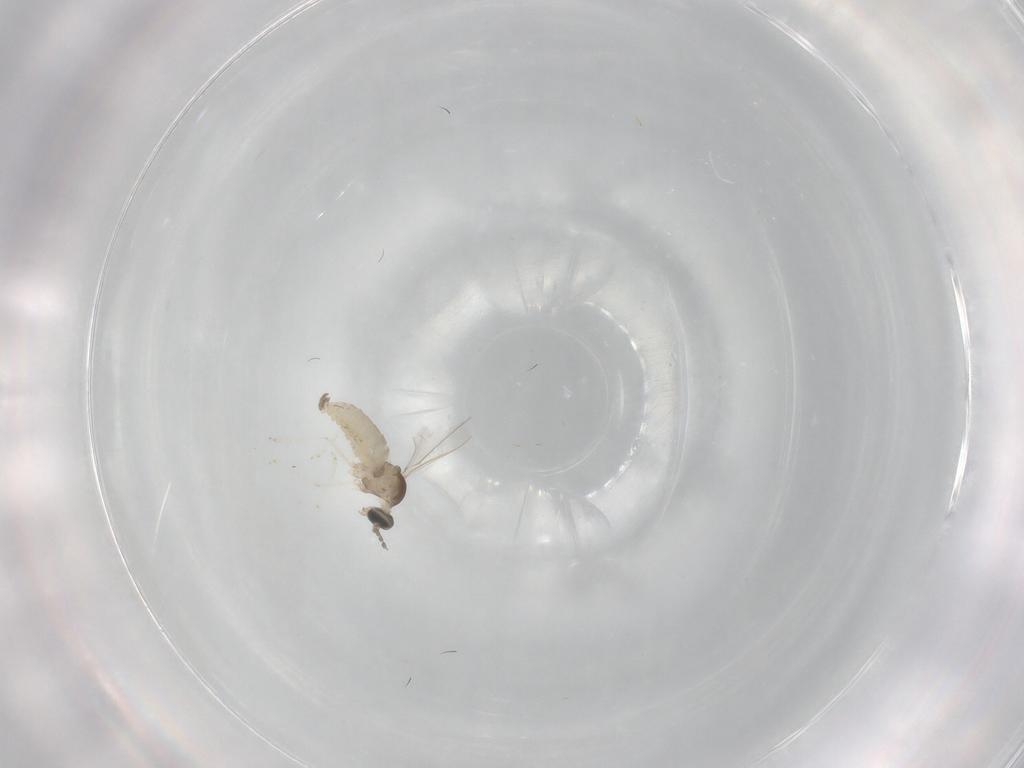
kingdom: Animalia
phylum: Arthropoda
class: Insecta
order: Diptera
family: Cecidomyiidae
